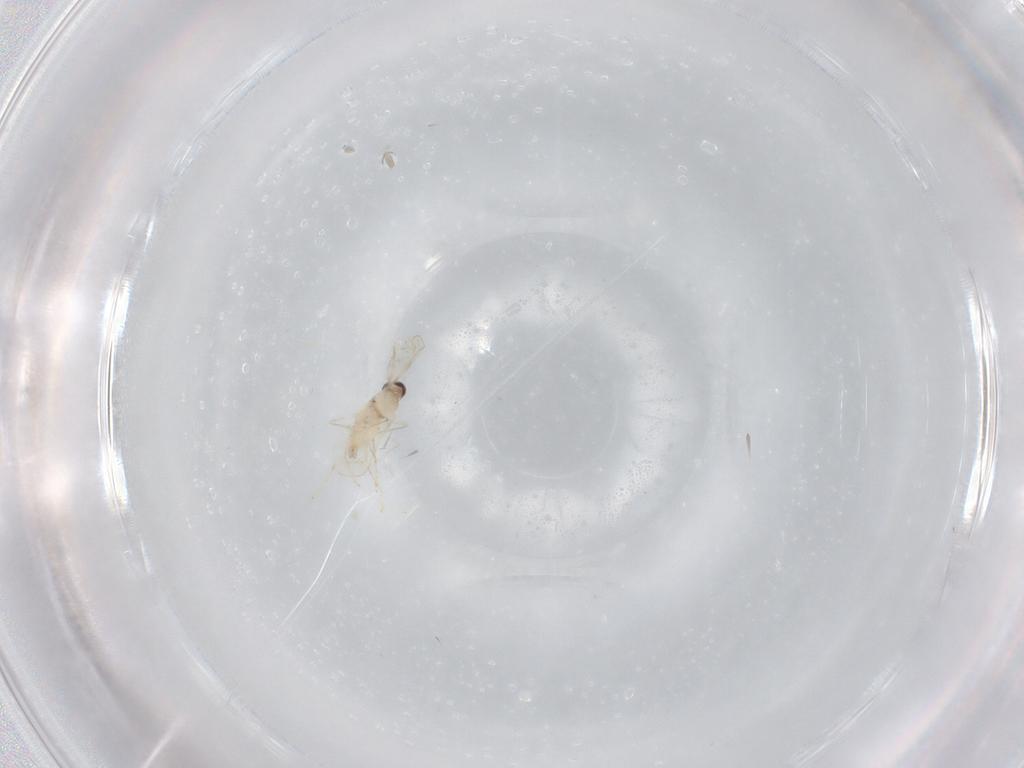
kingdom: Animalia
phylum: Arthropoda
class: Insecta
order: Diptera
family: Cecidomyiidae
